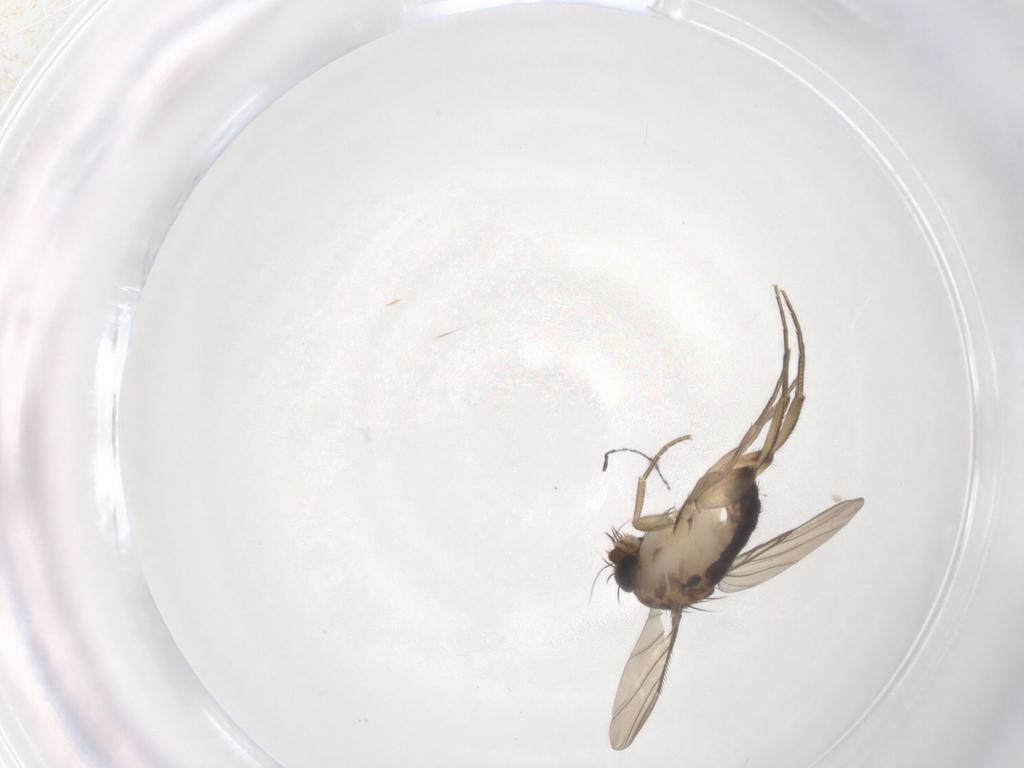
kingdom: Animalia
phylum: Arthropoda
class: Insecta
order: Diptera
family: Phoridae
